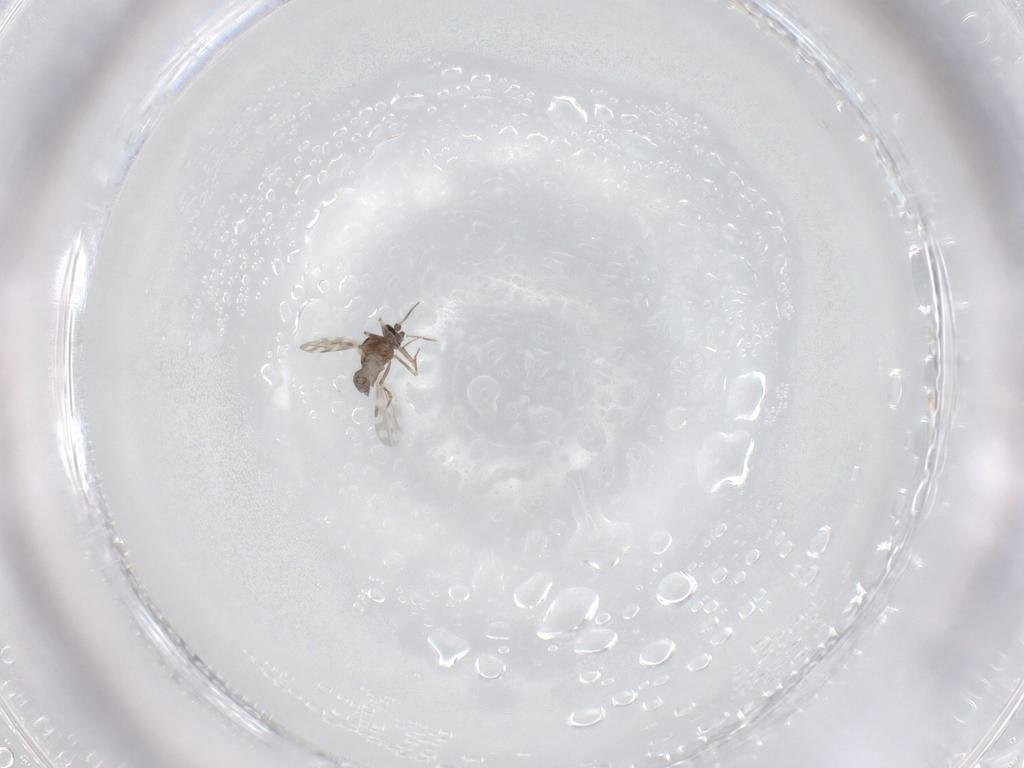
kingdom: Animalia
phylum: Arthropoda
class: Insecta
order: Diptera
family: Ceratopogonidae
